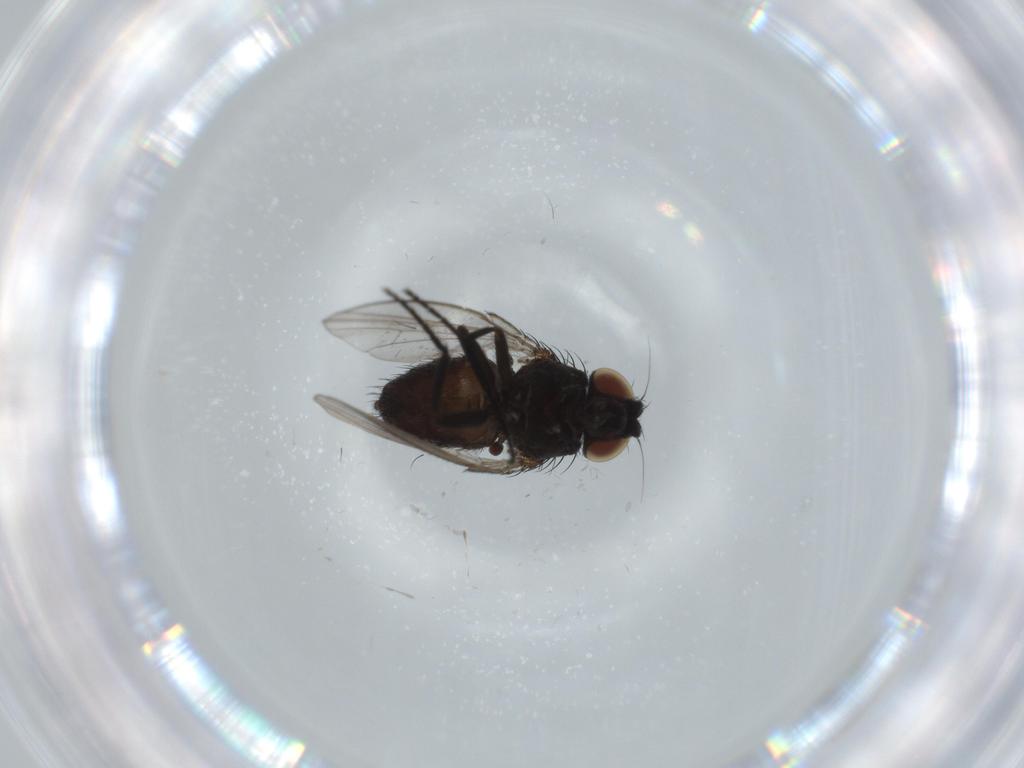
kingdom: Animalia
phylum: Arthropoda
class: Insecta
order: Diptera
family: Milichiidae
